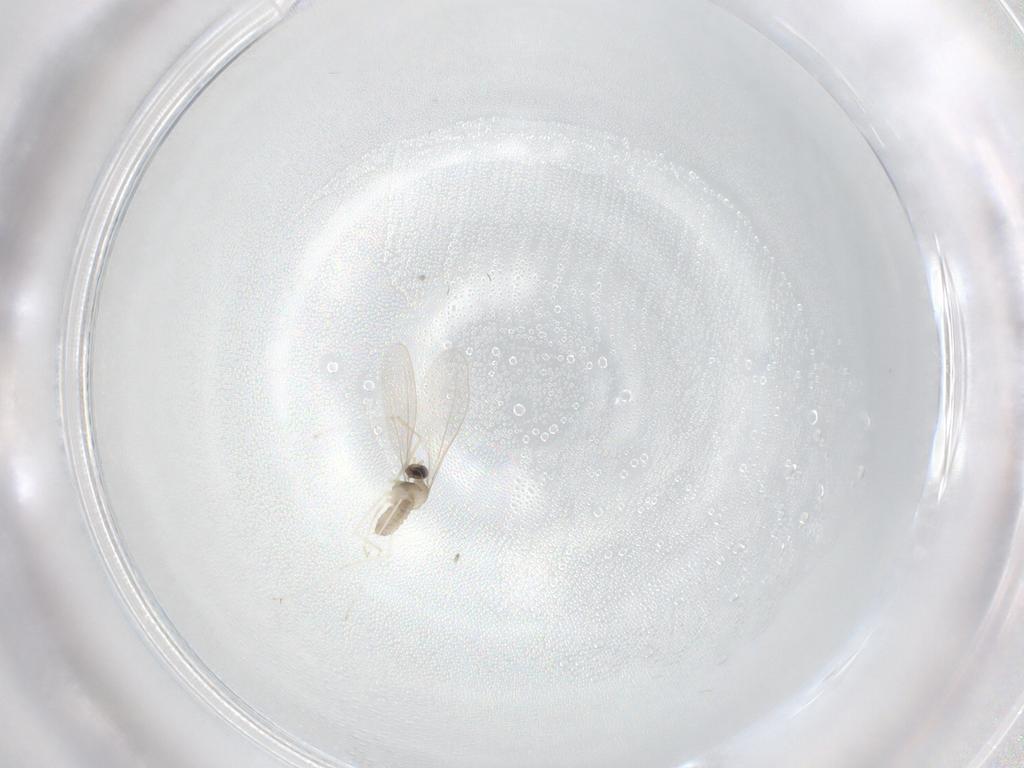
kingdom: Animalia
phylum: Arthropoda
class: Insecta
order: Diptera
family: Cecidomyiidae
